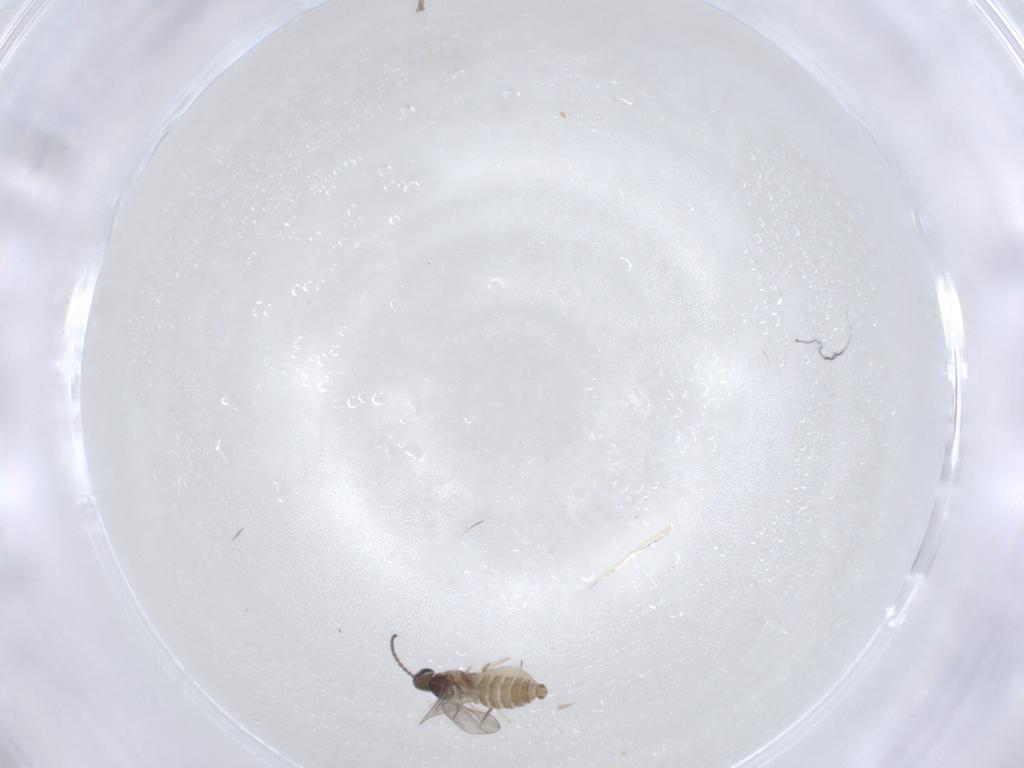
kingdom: Animalia
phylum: Arthropoda
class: Insecta
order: Diptera
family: Cecidomyiidae
